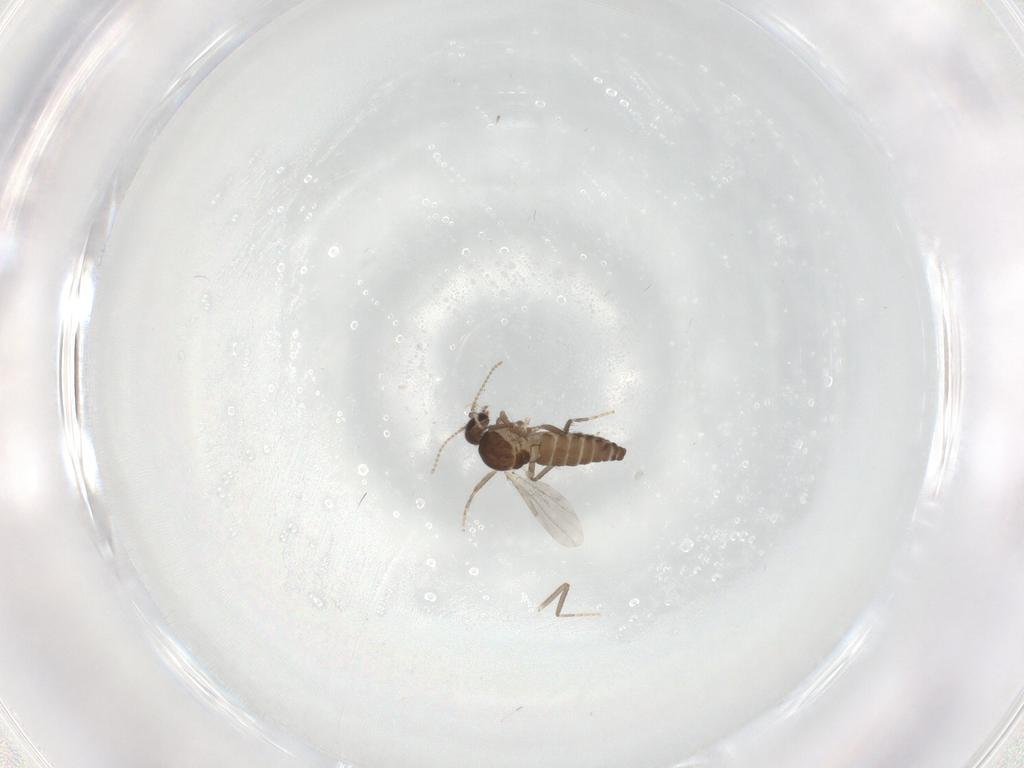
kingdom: Animalia
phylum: Arthropoda
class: Insecta
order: Diptera
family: Ceratopogonidae
